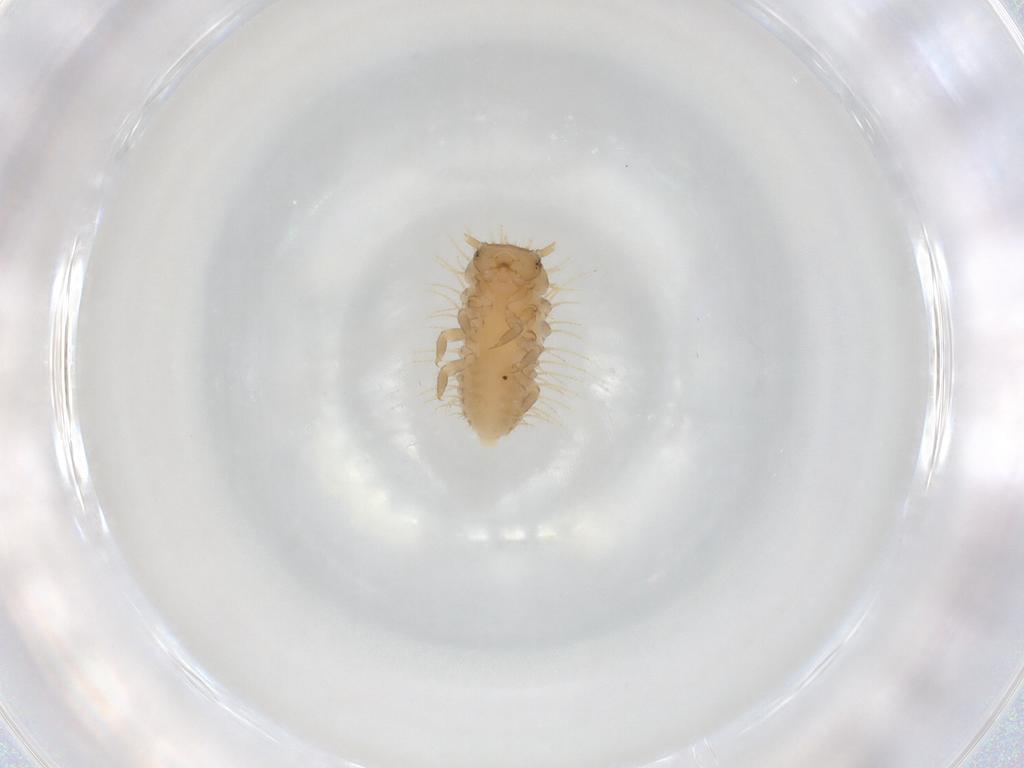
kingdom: Animalia
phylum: Arthropoda
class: Insecta
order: Coleoptera
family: Erotylidae
